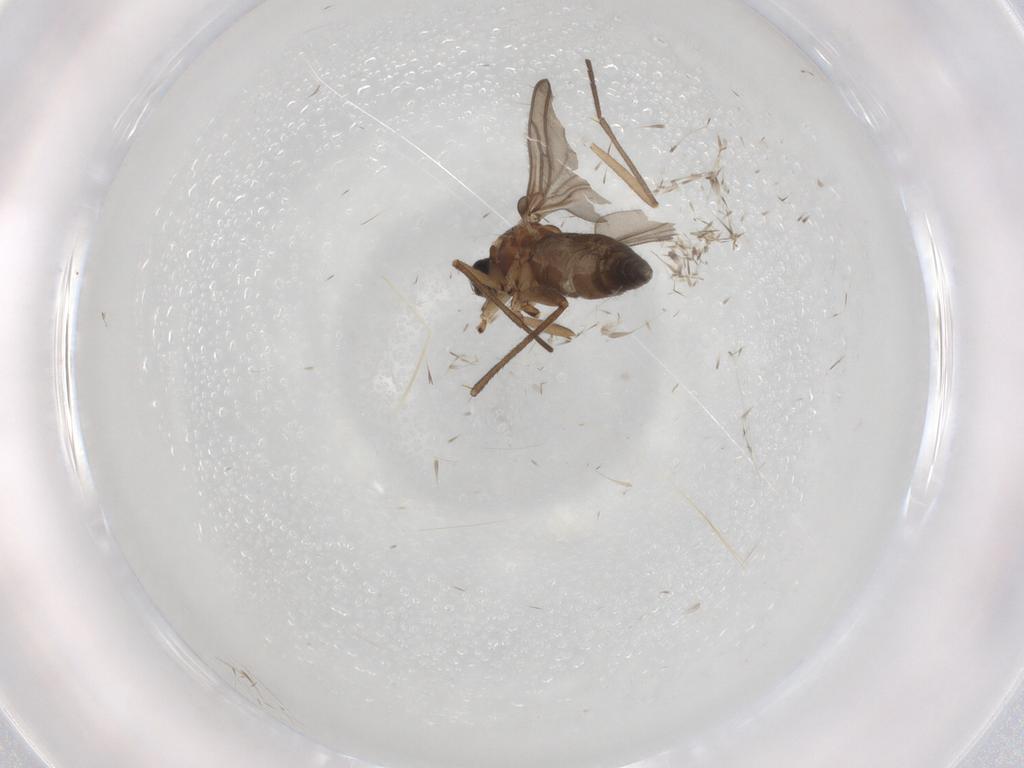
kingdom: Animalia
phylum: Arthropoda
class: Insecta
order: Diptera
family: Sciaridae
